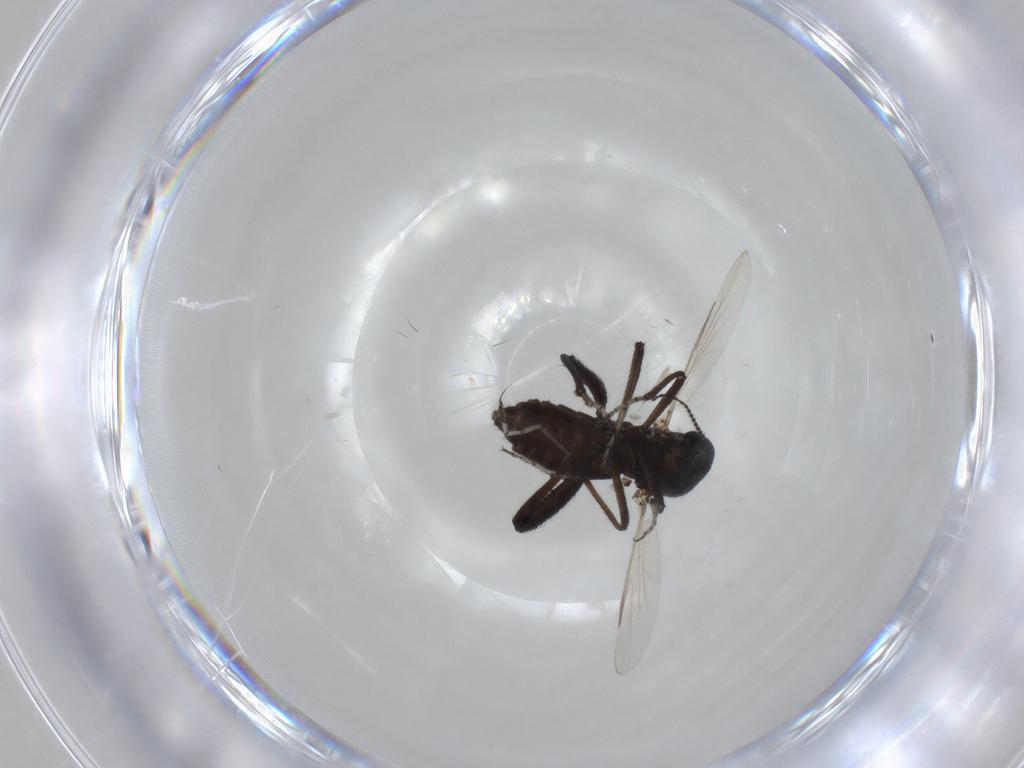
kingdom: Animalia
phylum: Arthropoda
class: Insecta
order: Diptera
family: Ceratopogonidae
